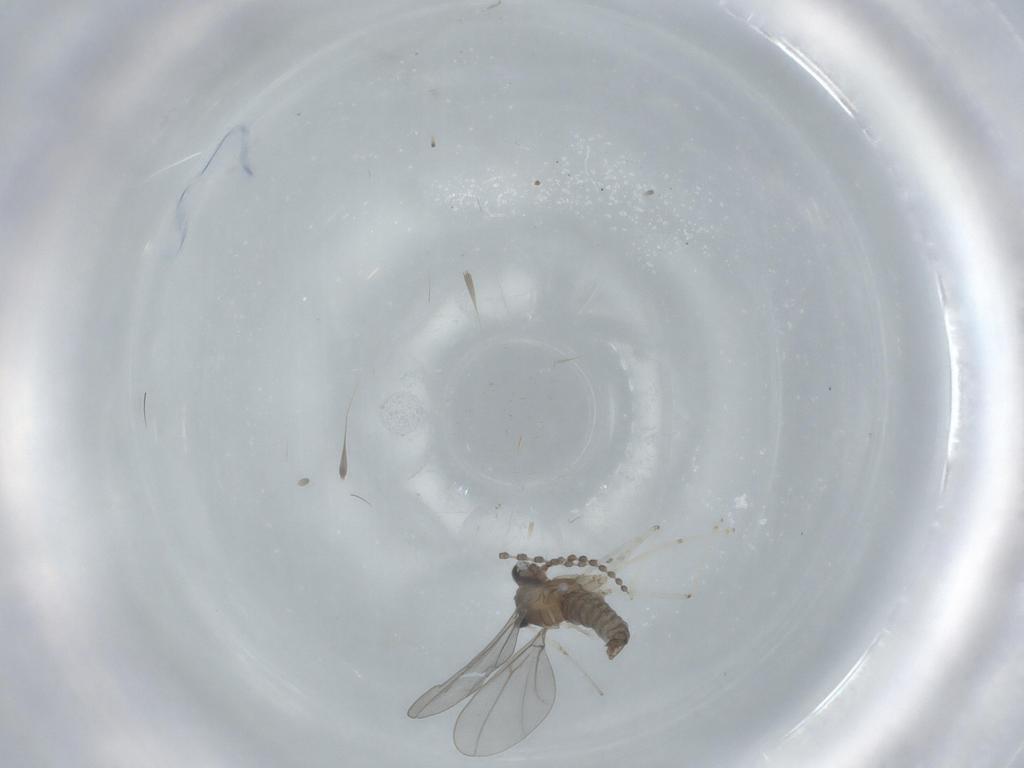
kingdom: Animalia
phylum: Arthropoda
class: Insecta
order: Diptera
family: Cecidomyiidae
